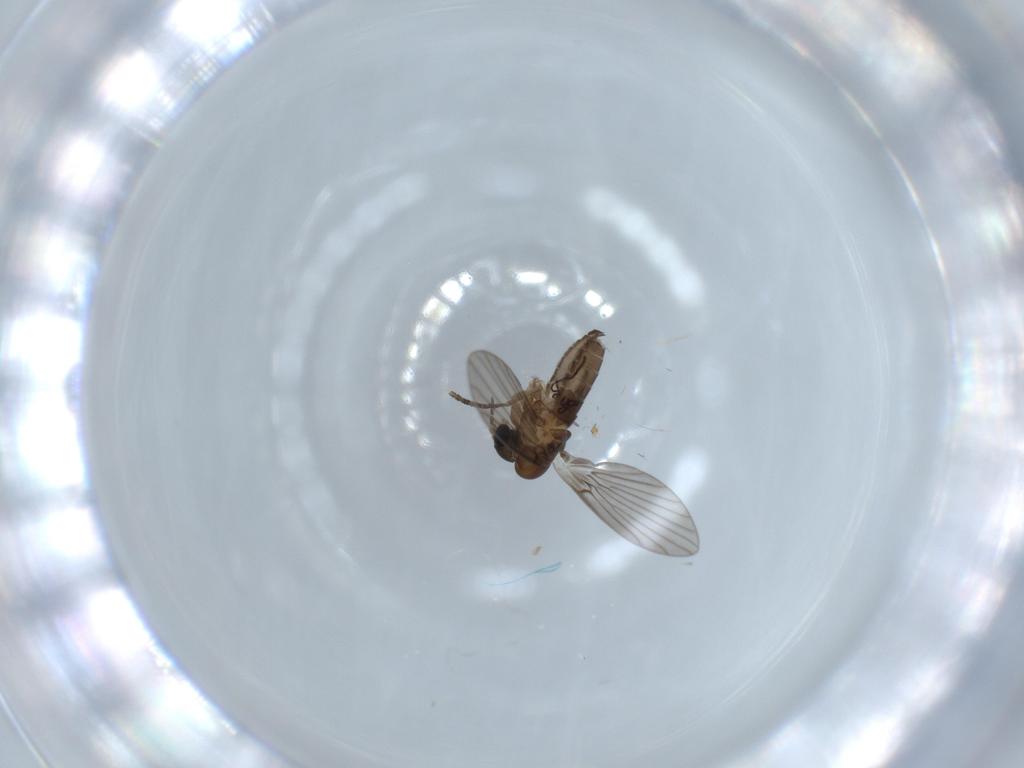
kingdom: Animalia
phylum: Arthropoda
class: Insecta
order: Diptera
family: Psychodidae
